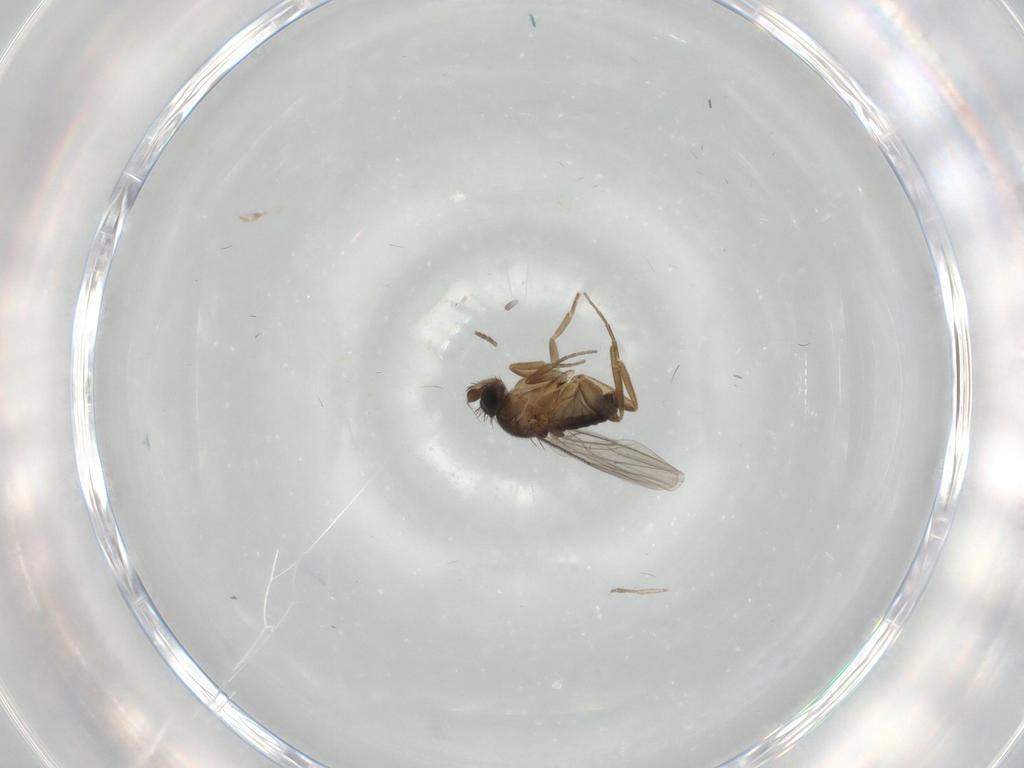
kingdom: Animalia
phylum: Arthropoda
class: Insecta
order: Diptera
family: Phoridae
